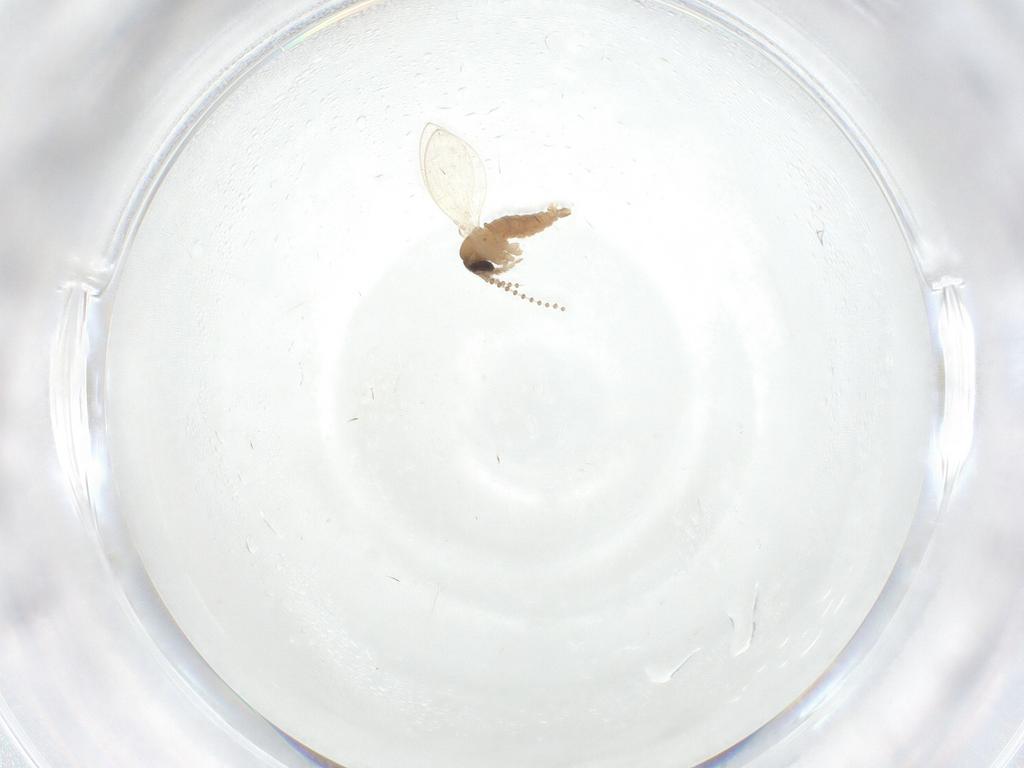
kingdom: Animalia
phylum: Arthropoda
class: Insecta
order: Diptera
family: Psychodidae
